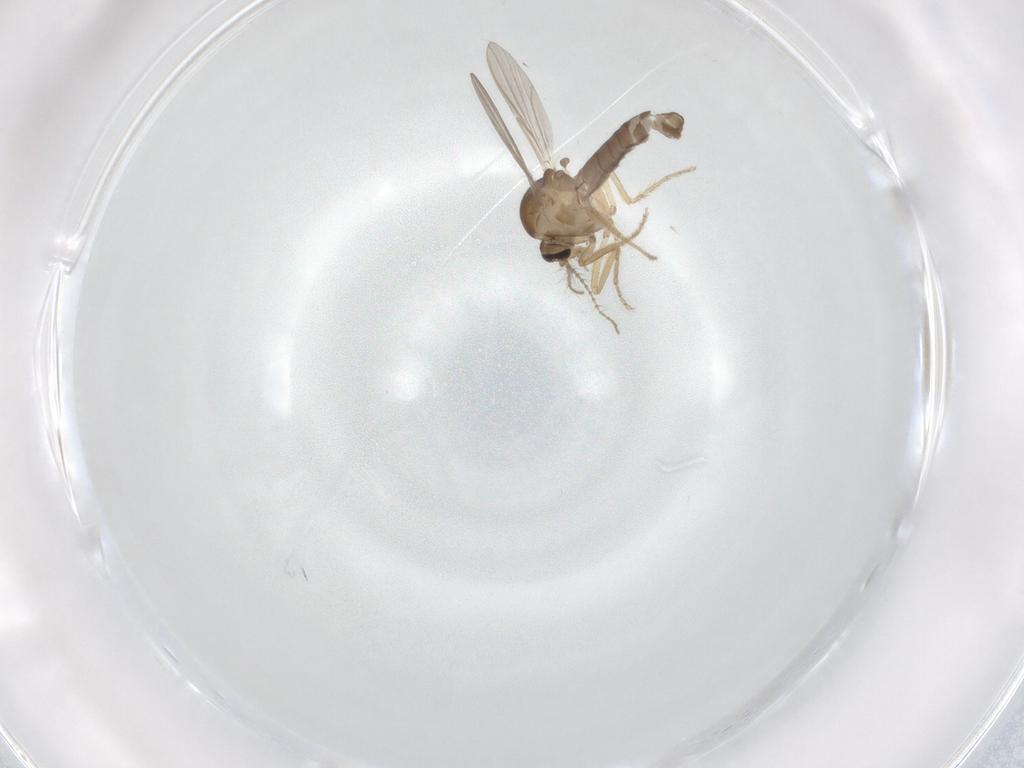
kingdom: Animalia
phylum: Arthropoda
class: Insecta
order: Diptera
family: Ceratopogonidae
